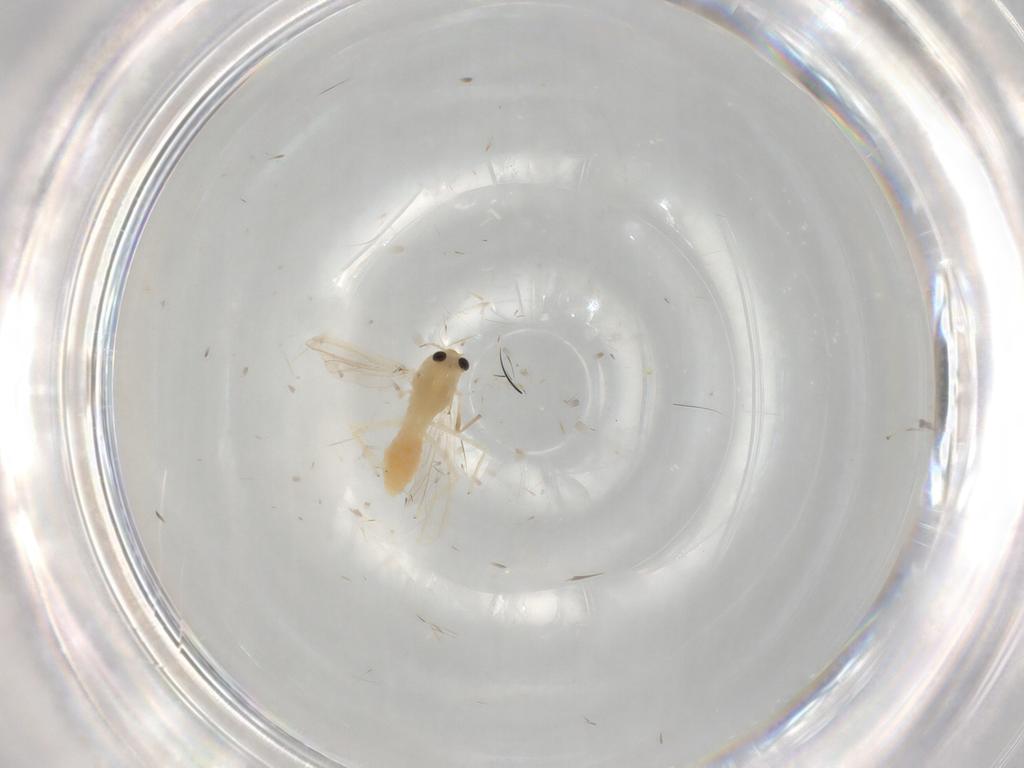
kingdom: Animalia
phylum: Arthropoda
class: Insecta
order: Diptera
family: Chironomidae
